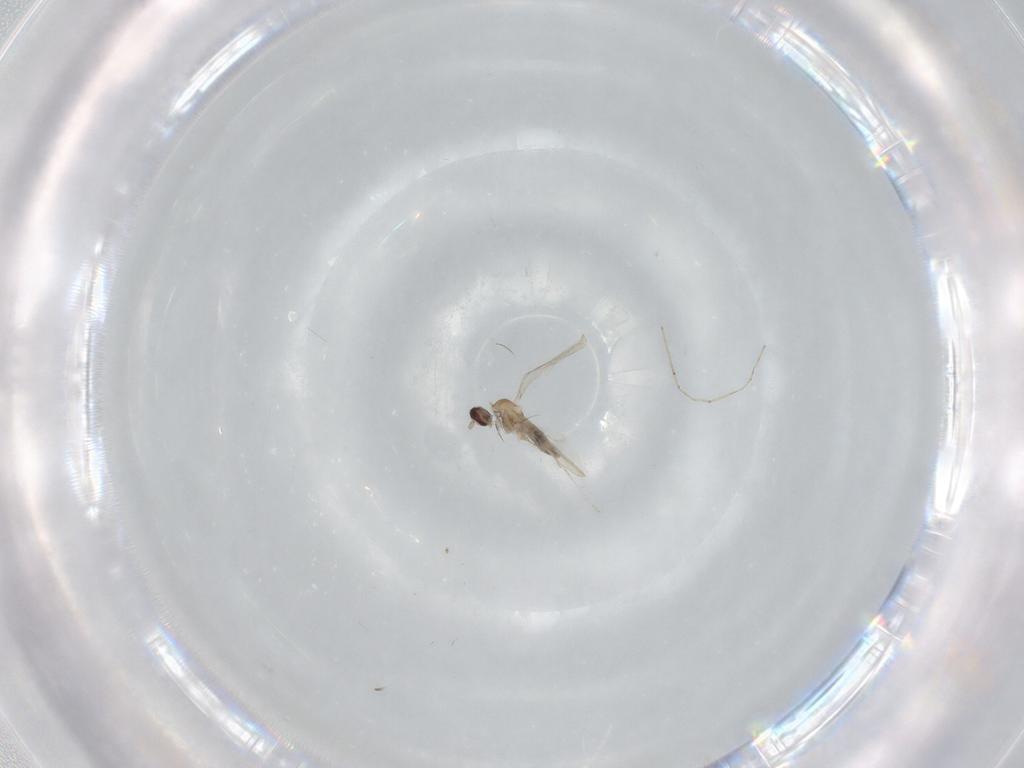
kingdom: Animalia
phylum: Arthropoda
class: Insecta
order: Diptera
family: Cecidomyiidae
